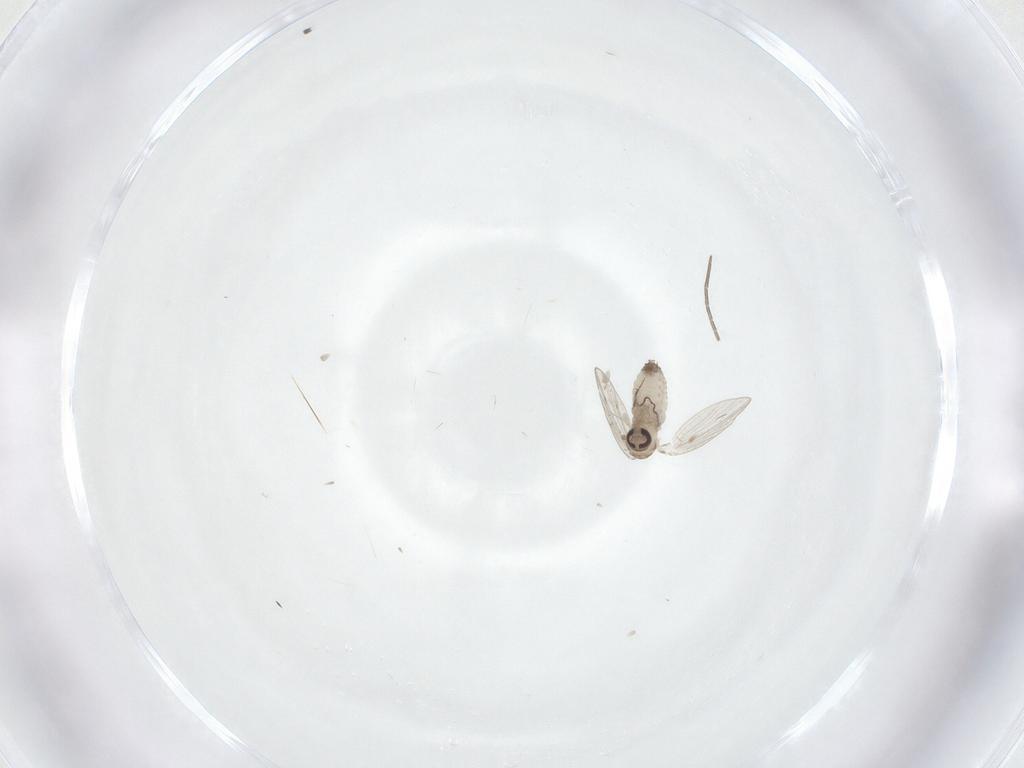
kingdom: Animalia
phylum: Arthropoda
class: Insecta
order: Diptera
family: Psychodidae
